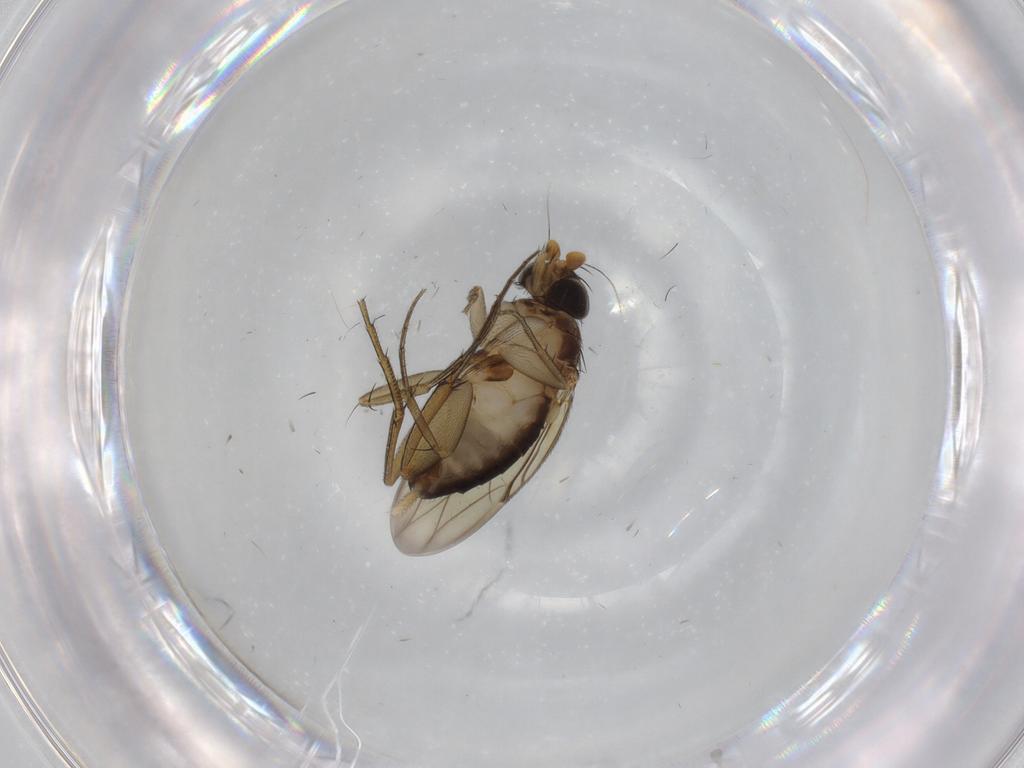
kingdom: Animalia
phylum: Arthropoda
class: Insecta
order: Diptera
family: Phoridae
